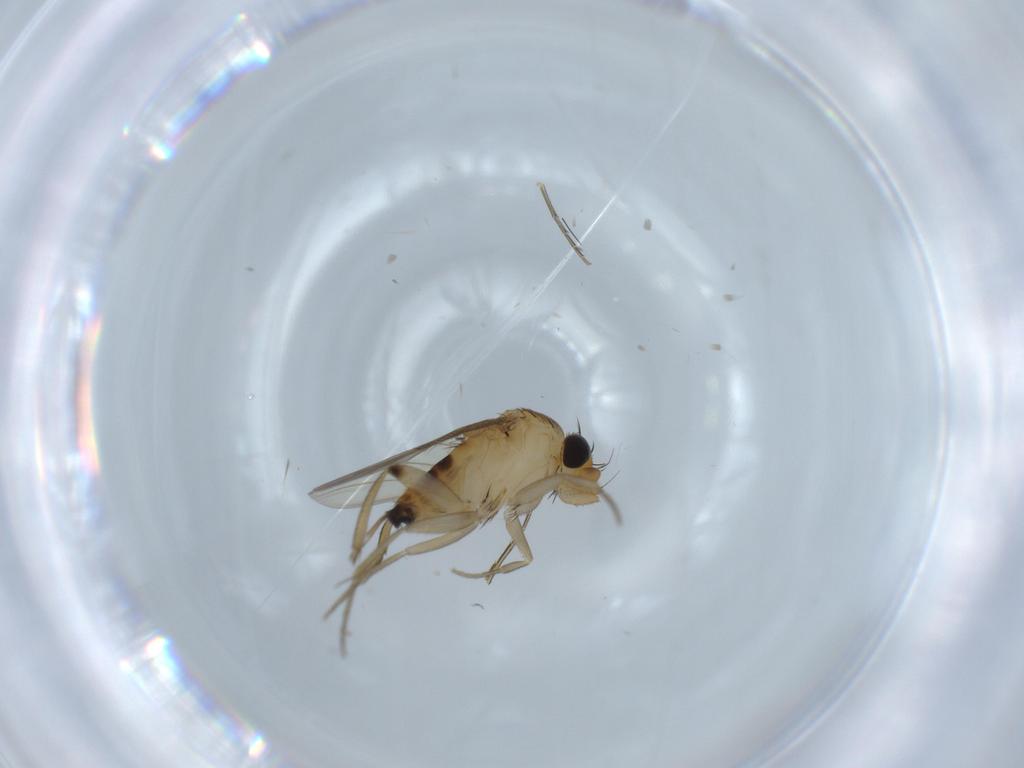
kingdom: Animalia
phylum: Arthropoda
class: Insecta
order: Diptera
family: Phoridae
